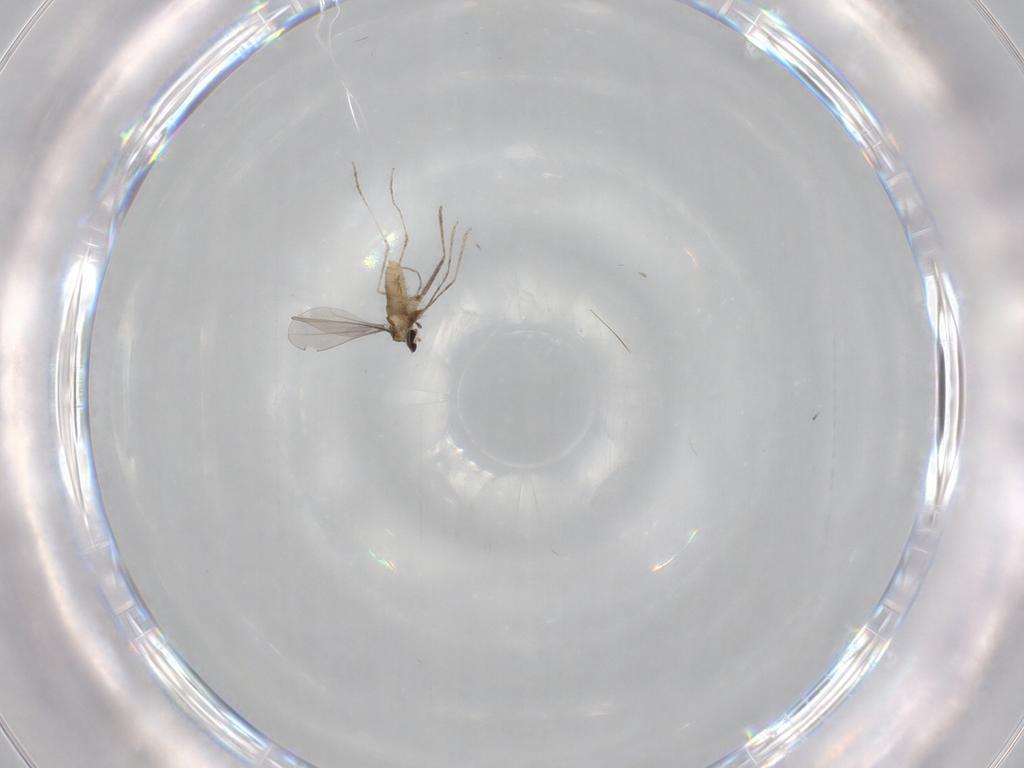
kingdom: Animalia
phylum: Arthropoda
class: Insecta
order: Diptera
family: Cecidomyiidae
